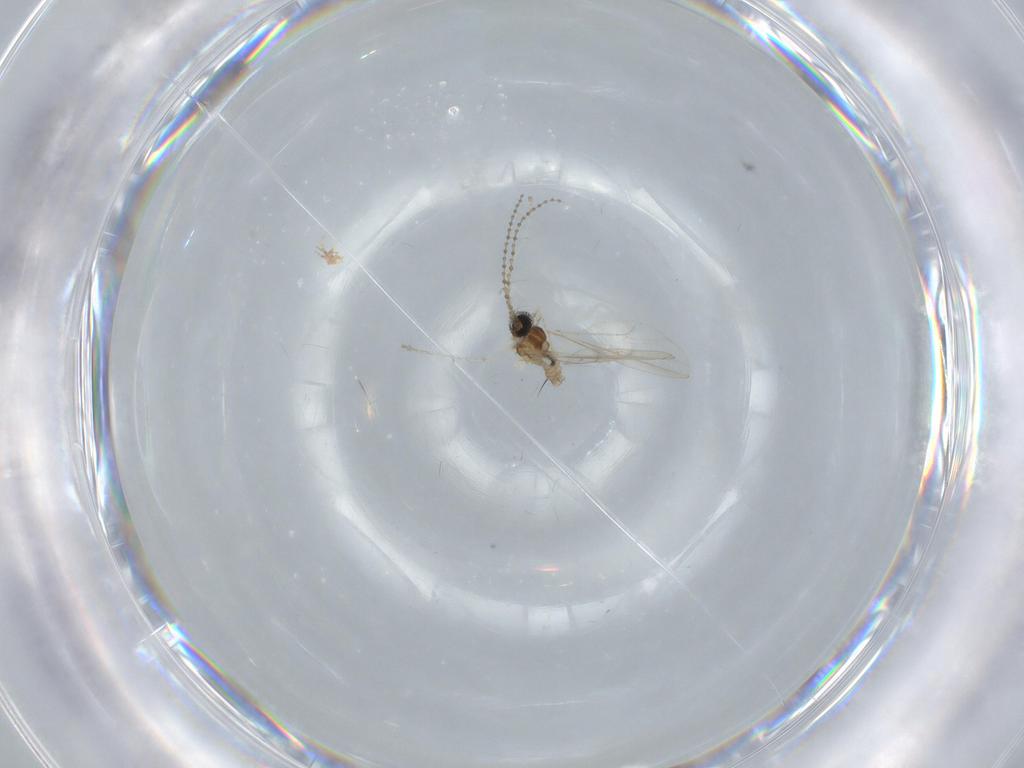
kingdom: Animalia
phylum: Arthropoda
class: Insecta
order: Diptera
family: Cecidomyiidae
